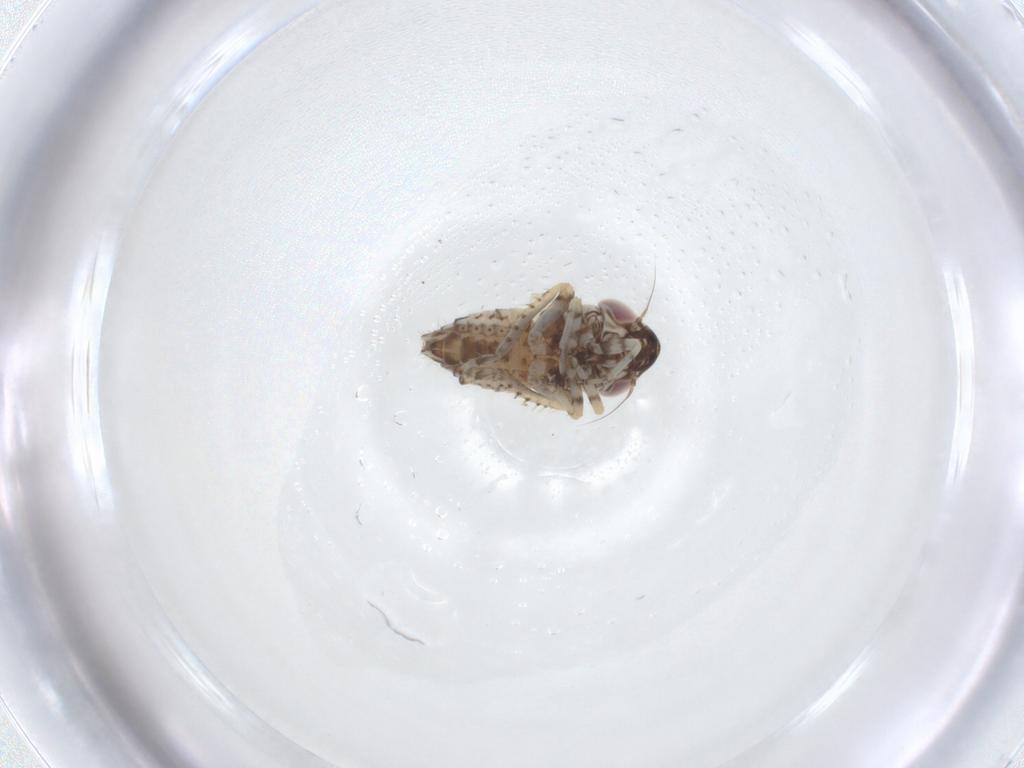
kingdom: Animalia
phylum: Arthropoda
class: Insecta
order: Hemiptera
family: Cicadellidae
